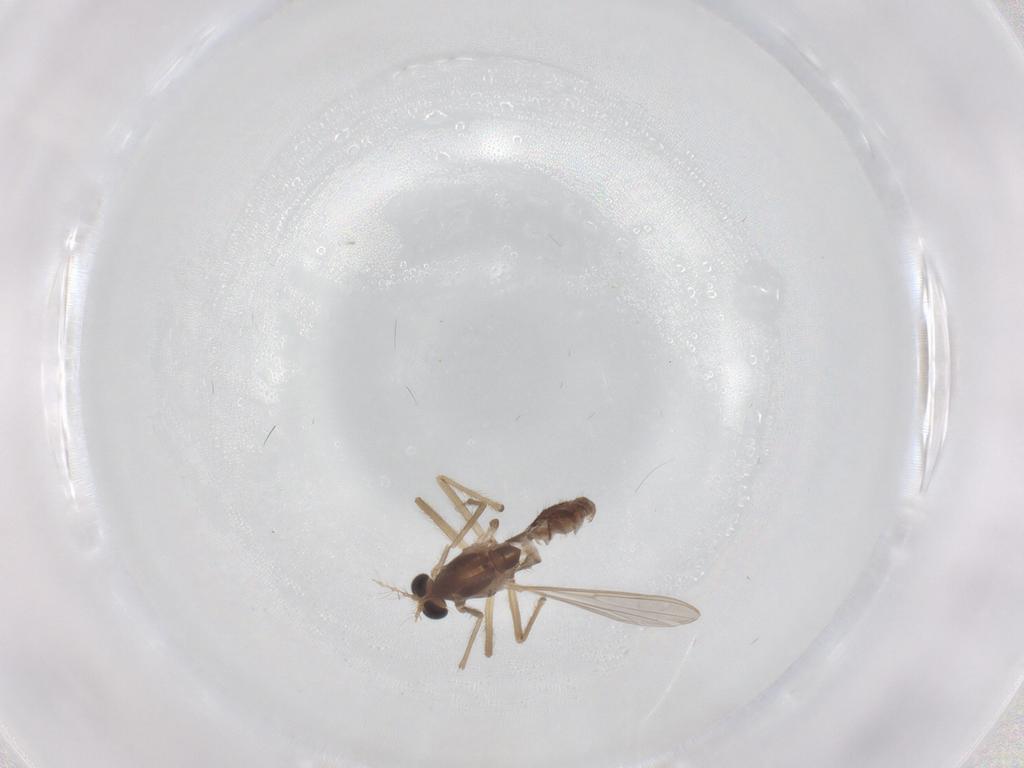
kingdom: Animalia
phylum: Arthropoda
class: Insecta
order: Diptera
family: Chironomidae
